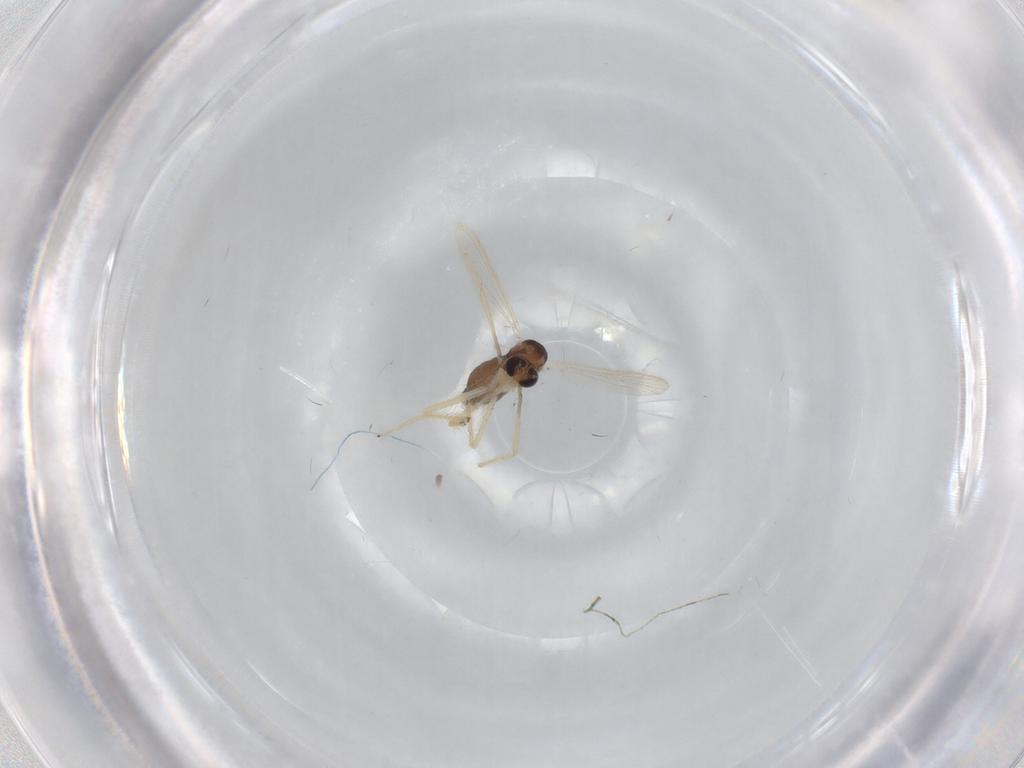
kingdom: Animalia
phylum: Arthropoda
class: Insecta
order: Diptera
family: Chironomidae
